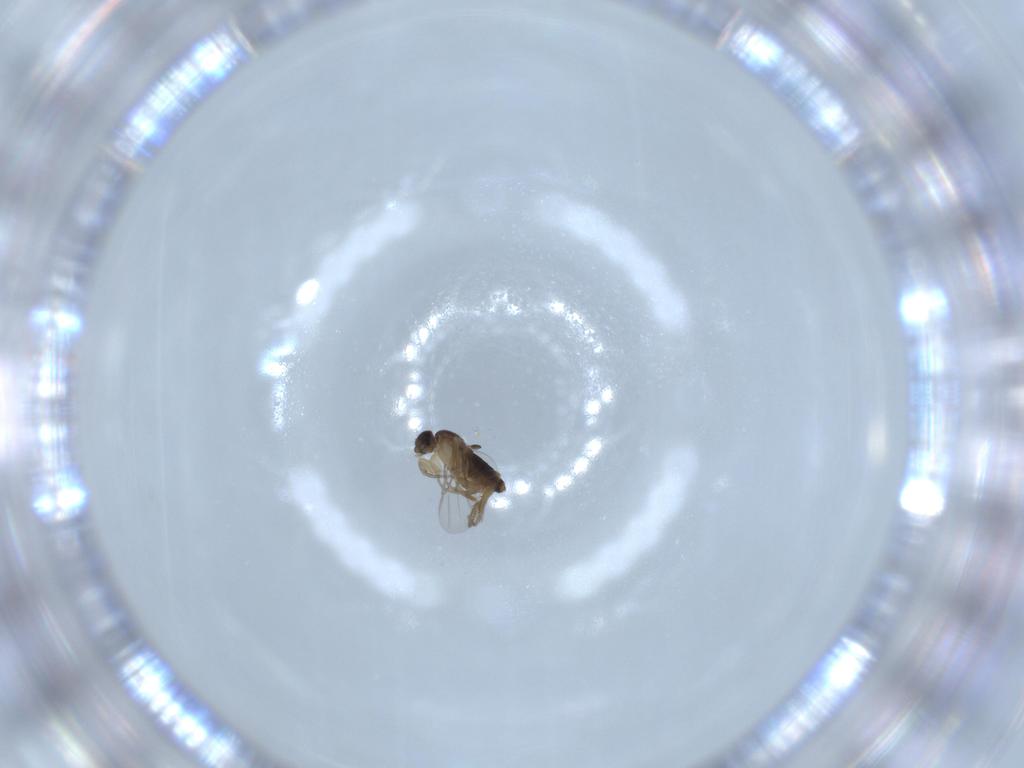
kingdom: Animalia
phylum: Arthropoda
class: Insecta
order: Diptera
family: Phoridae
